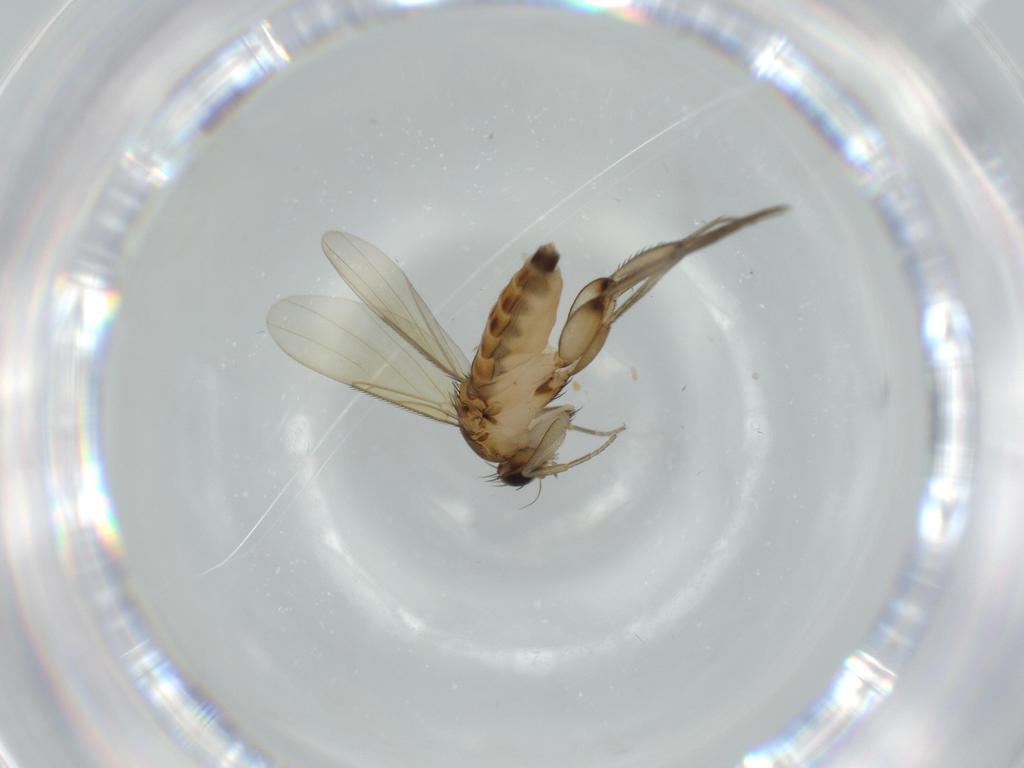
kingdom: Animalia
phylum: Arthropoda
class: Insecta
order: Diptera
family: Phoridae
